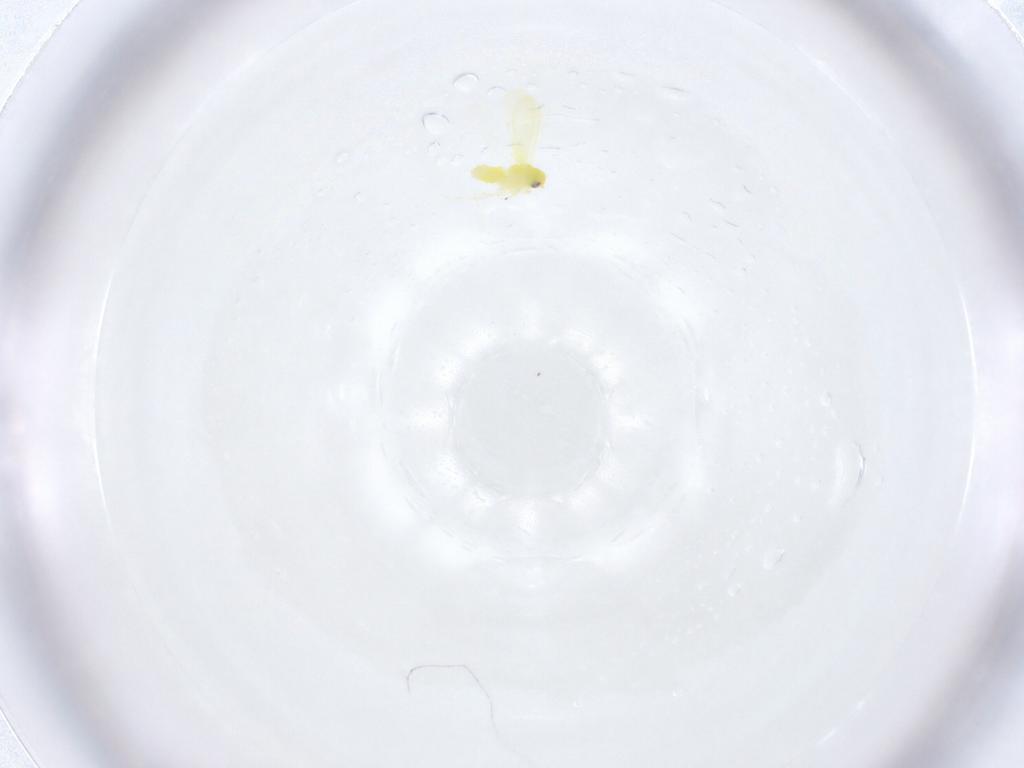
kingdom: Animalia
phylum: Arthropoda
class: Insecta
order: Hemiptera
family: Aleyrodidae
